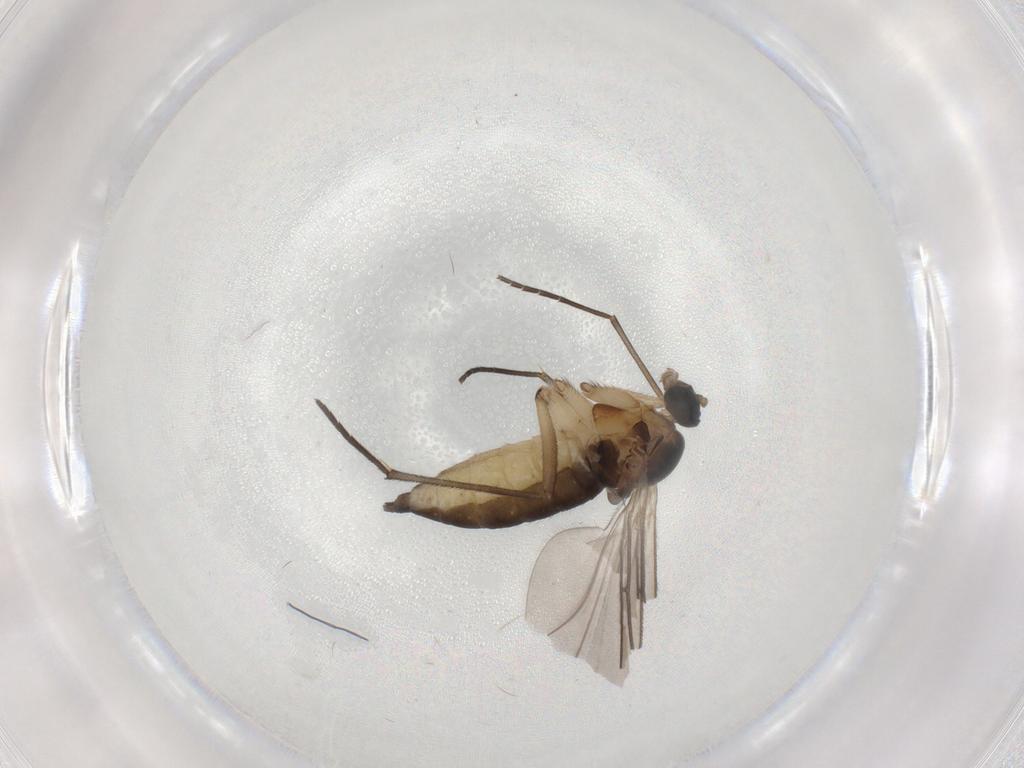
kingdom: Animalia
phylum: Arthropoda
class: Insecta
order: Diptera
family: Sciaridae
